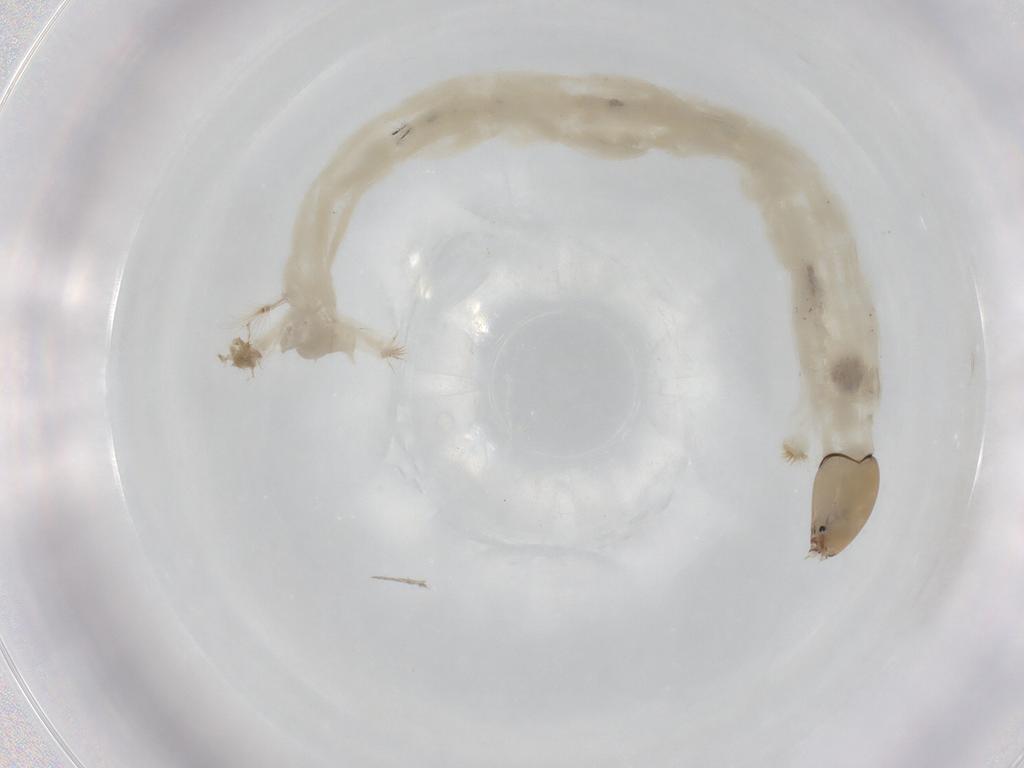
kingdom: Animalia
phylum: Arthropoda
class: Insecta
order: Diptera
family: Chironomidae
